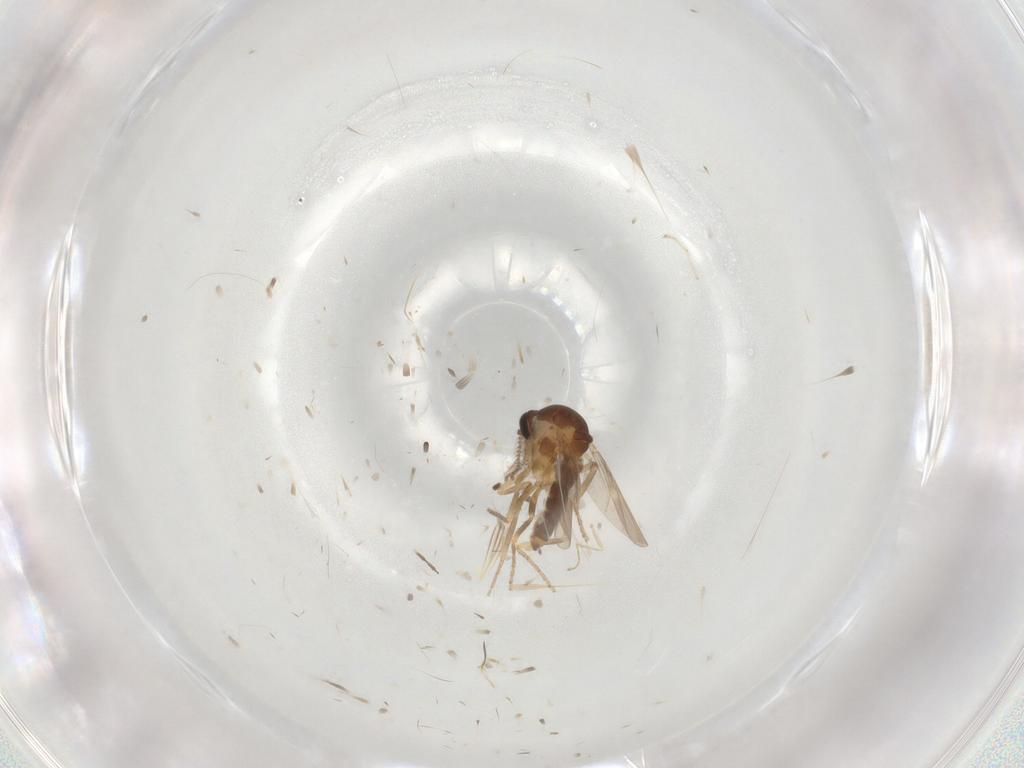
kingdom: Animalia
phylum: Arthropoda
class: Insecta
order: Diptera
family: Ceratopogonidae
